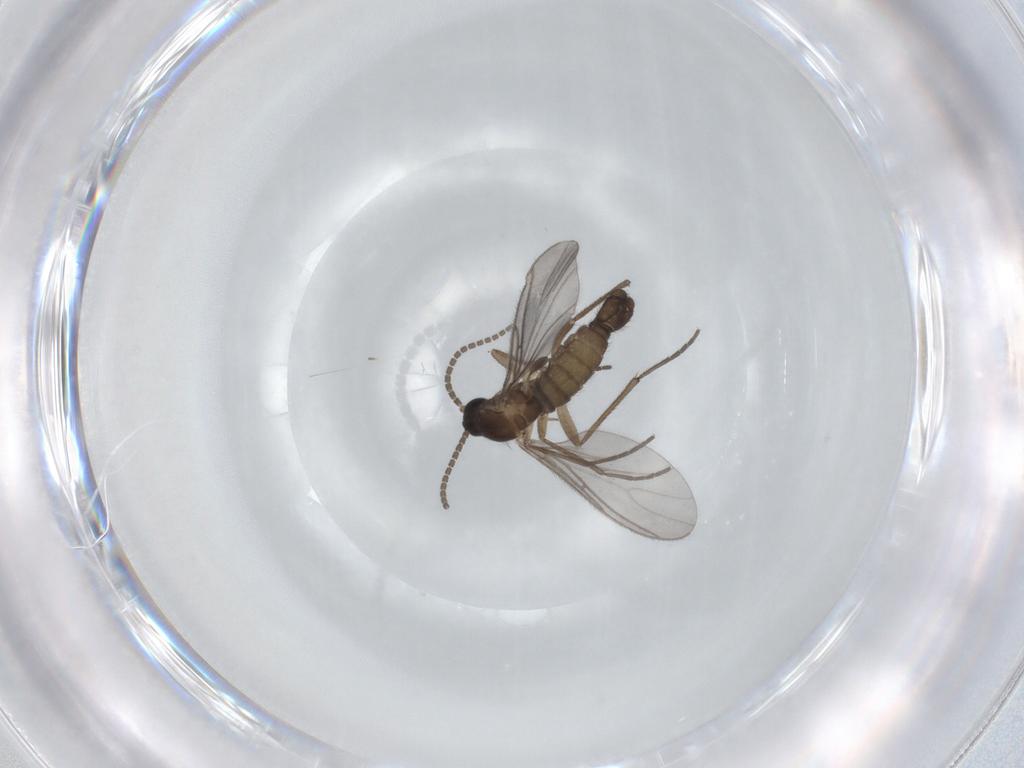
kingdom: Animalia
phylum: Arthropoda
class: Insecta
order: Diptera
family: Sciaridae
